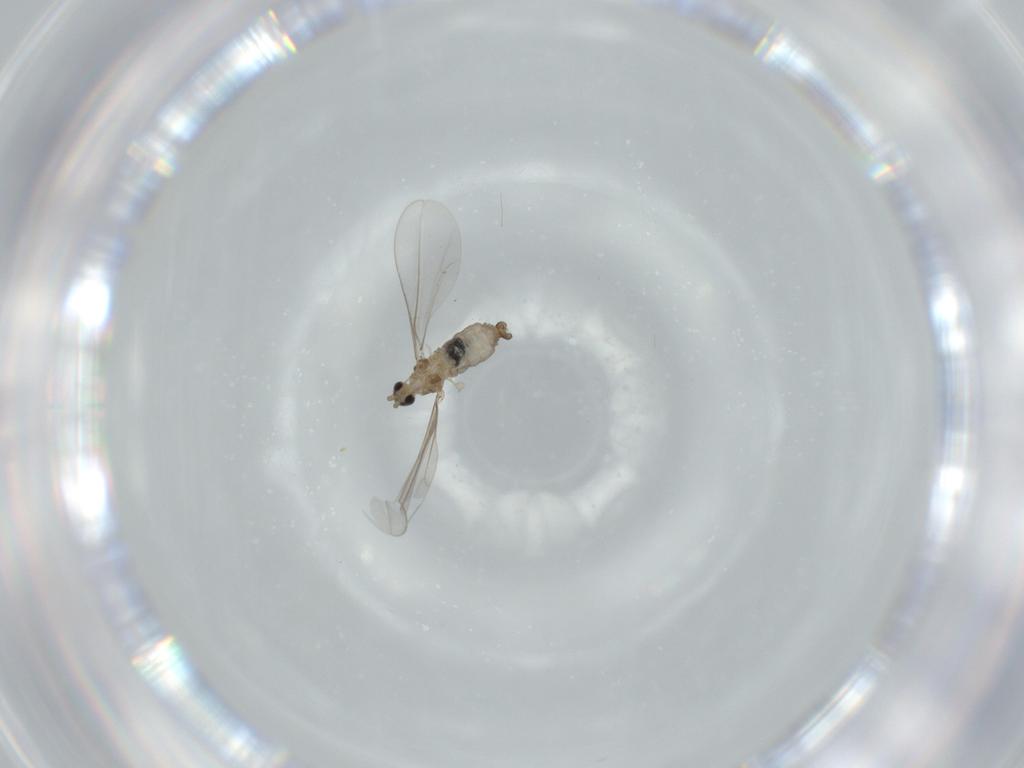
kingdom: Animalia
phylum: Arthropoda
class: Insecta
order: Diptera
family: Cecidomyiidae
